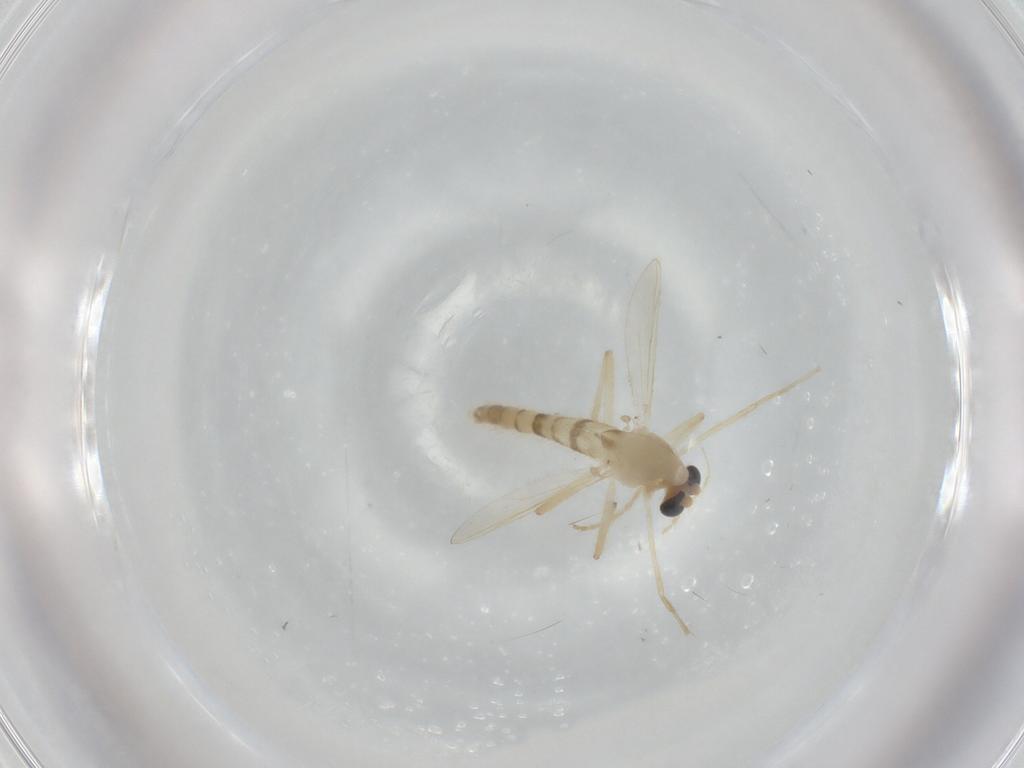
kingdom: Animalia
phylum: Arthropoda
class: Insecta
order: Diptera
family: Chironomidae
